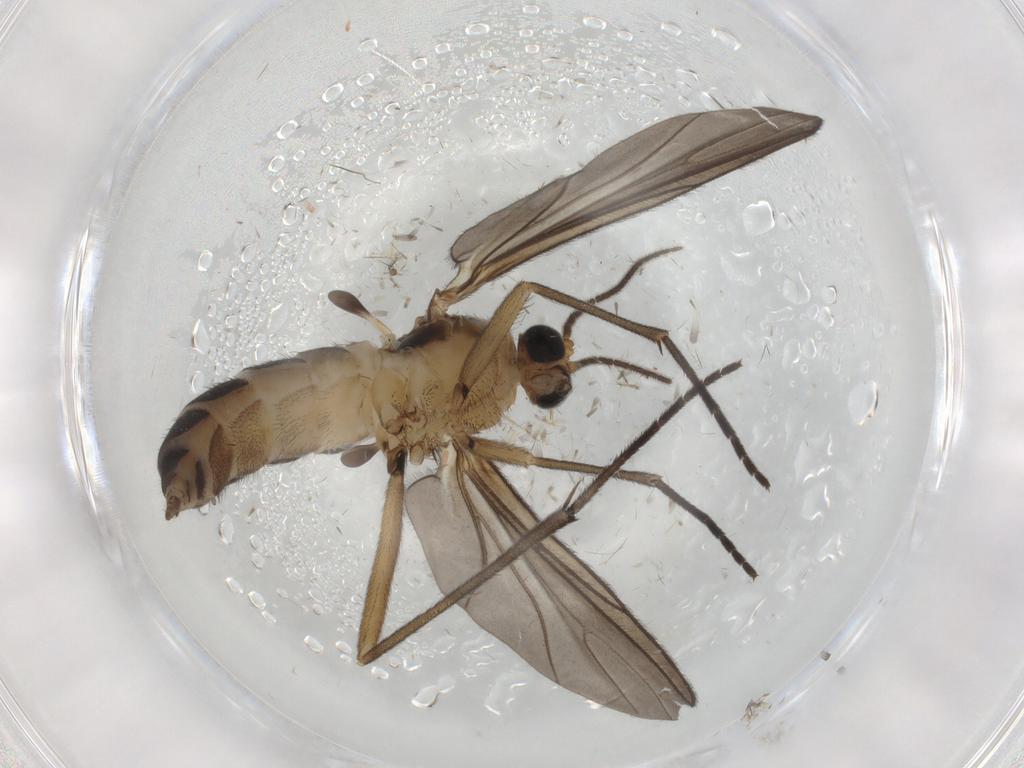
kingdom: Animalia
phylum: Arthropoda
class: Insecta
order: Diptera
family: Sciaridae
